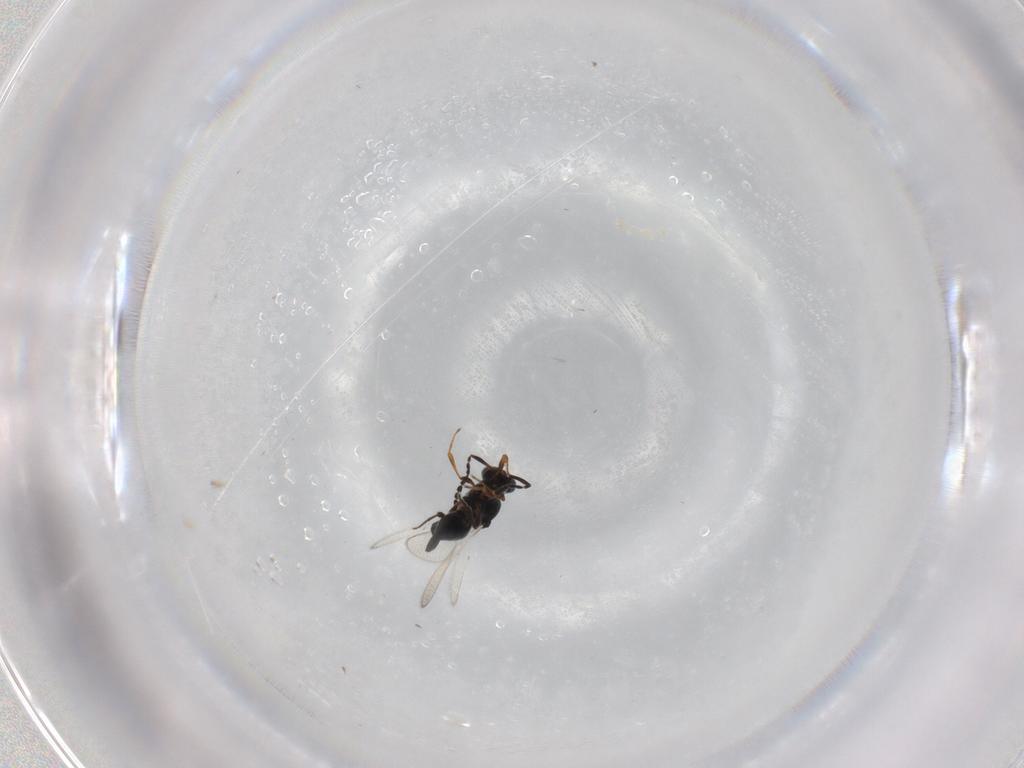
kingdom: Animalia
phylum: Arthropoda
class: Insecta
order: Hymenoptera
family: Platygastridae
